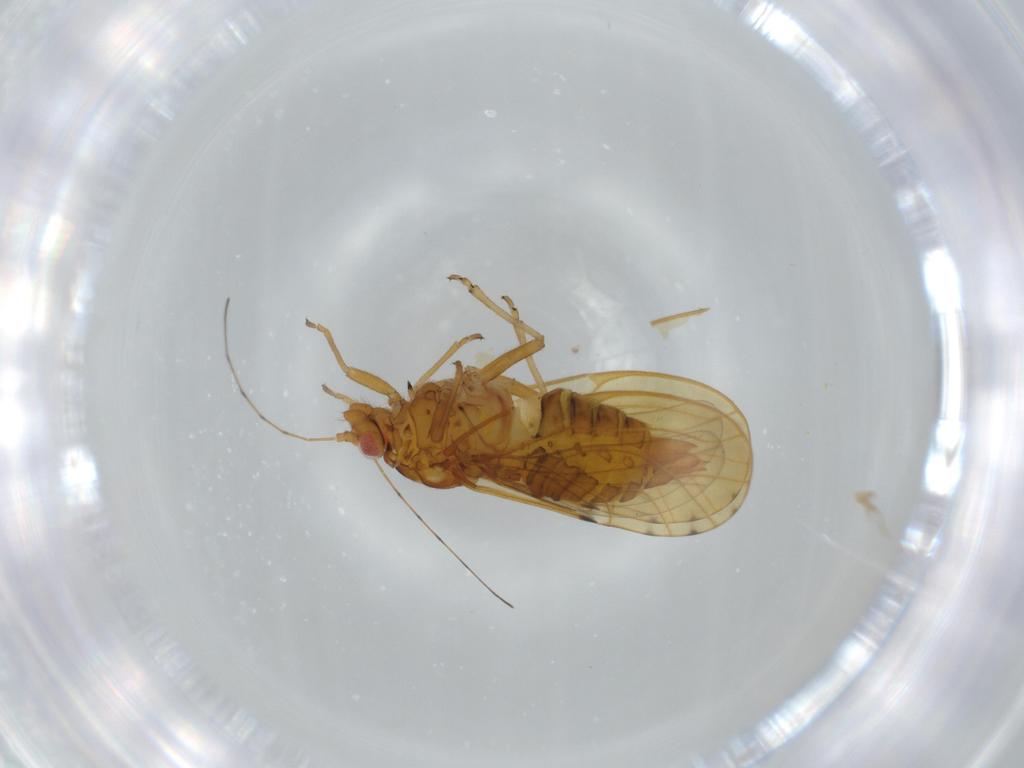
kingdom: Animalia
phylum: Arthropoda
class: Insecta
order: Hemiptera
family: Psylloidea_incertae_sedis
